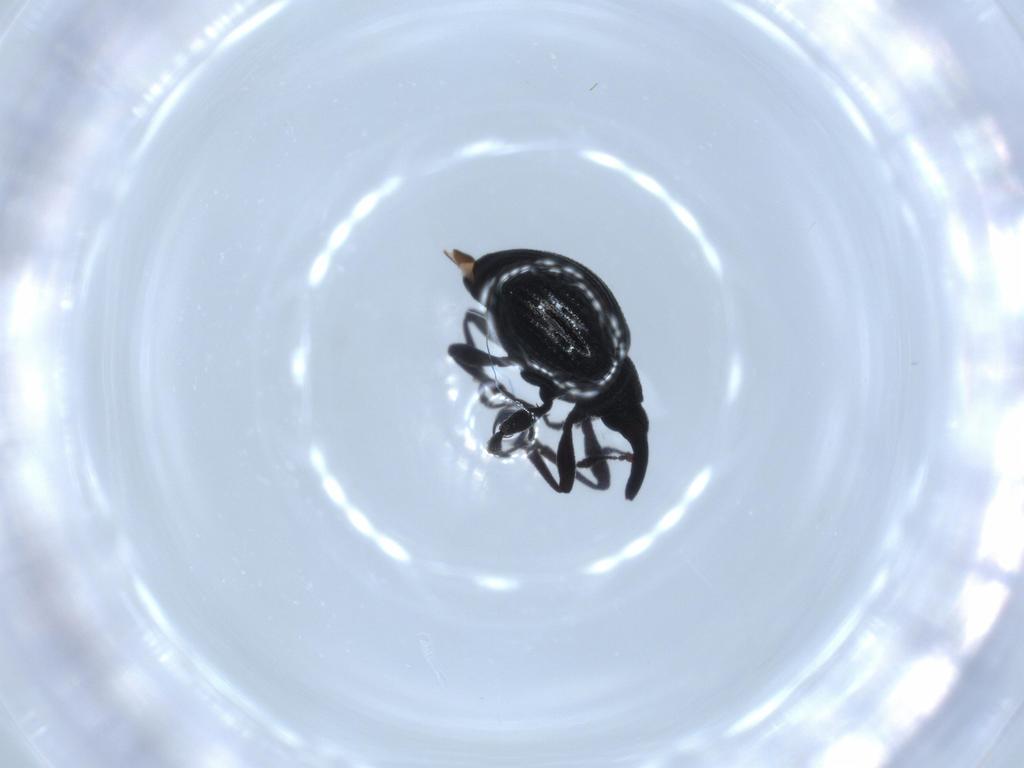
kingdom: Animalia
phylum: Arthropoda
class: Insecta
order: Coleoptera
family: Brentidae
